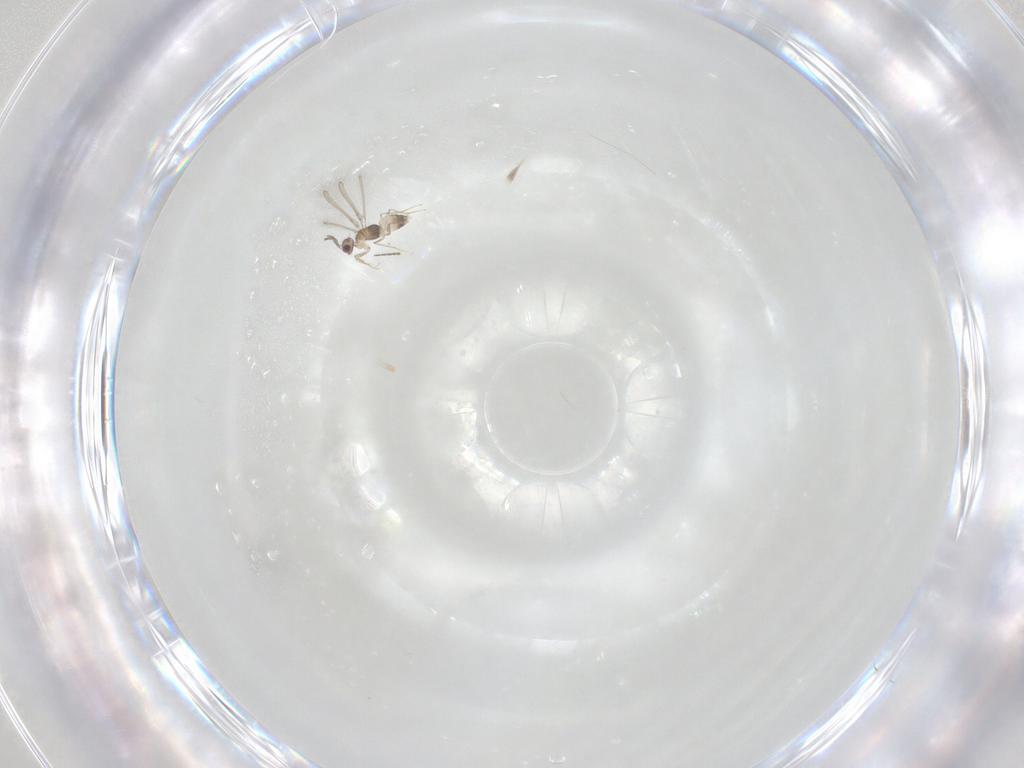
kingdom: Animalia
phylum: Arthropoda
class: Insecta
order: Hymenoptera
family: Mymaridae
